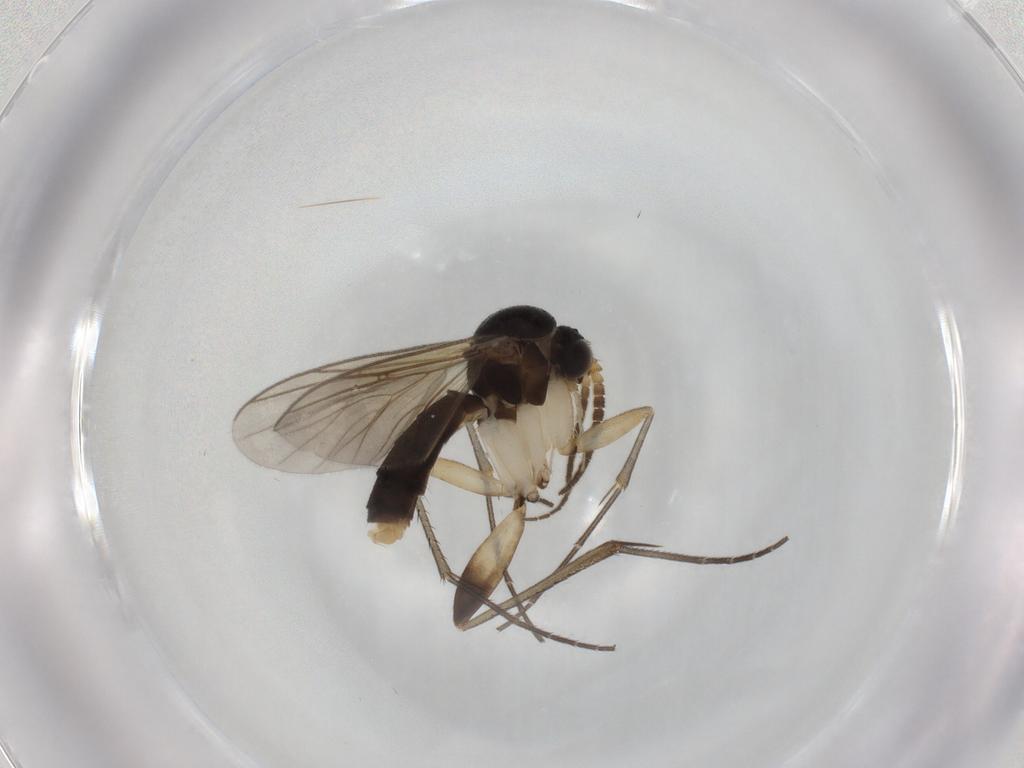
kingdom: Animalia
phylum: Arthropoda
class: Insecta
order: Diptera
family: Mycetophilidae
